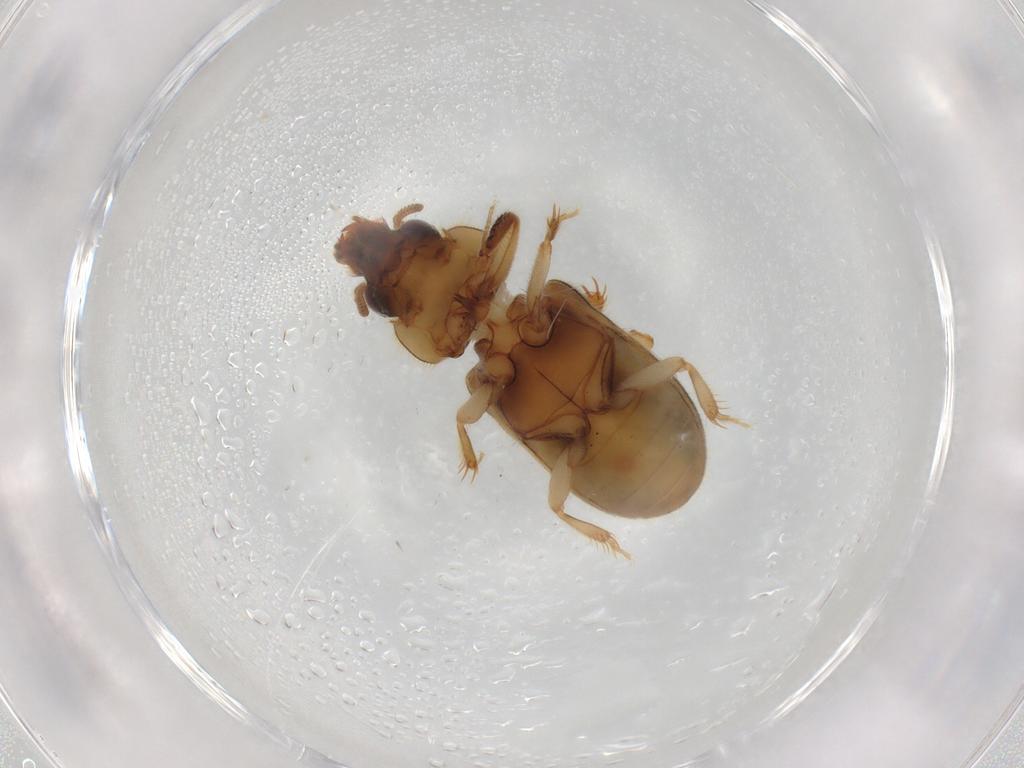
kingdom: Animalia
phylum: Arthropoda
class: Insecta
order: Coleoptera
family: Heteroceridae
